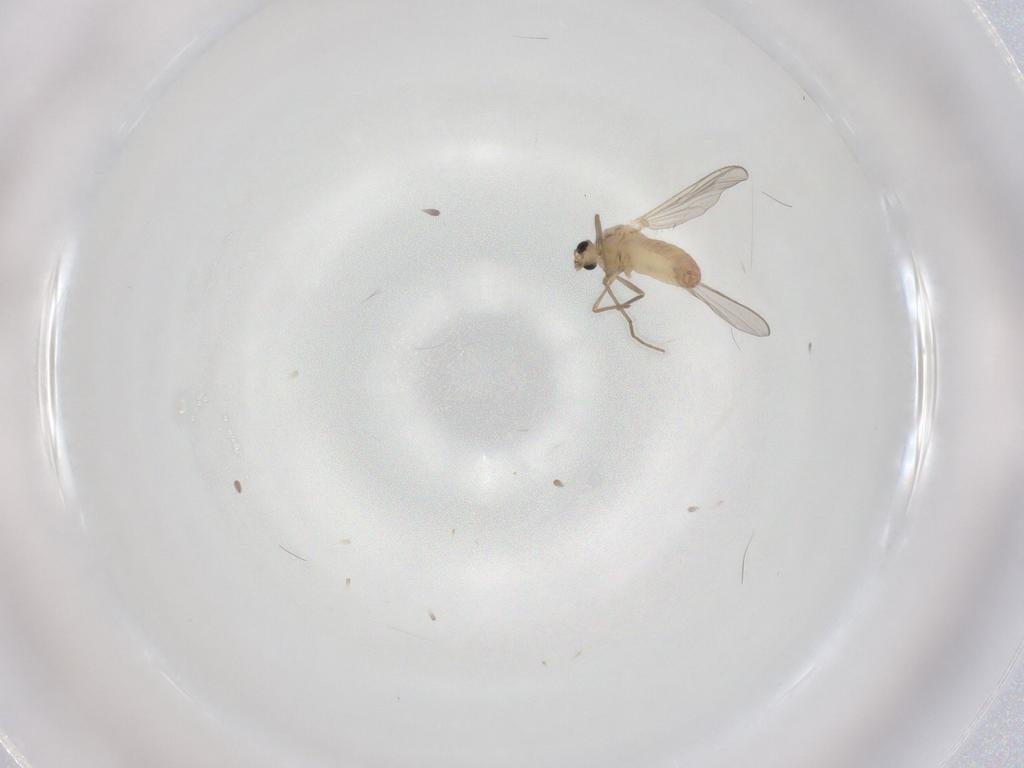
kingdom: Animalia
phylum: Arthropoda
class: Insecta
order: Diptera
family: Chironomidae
